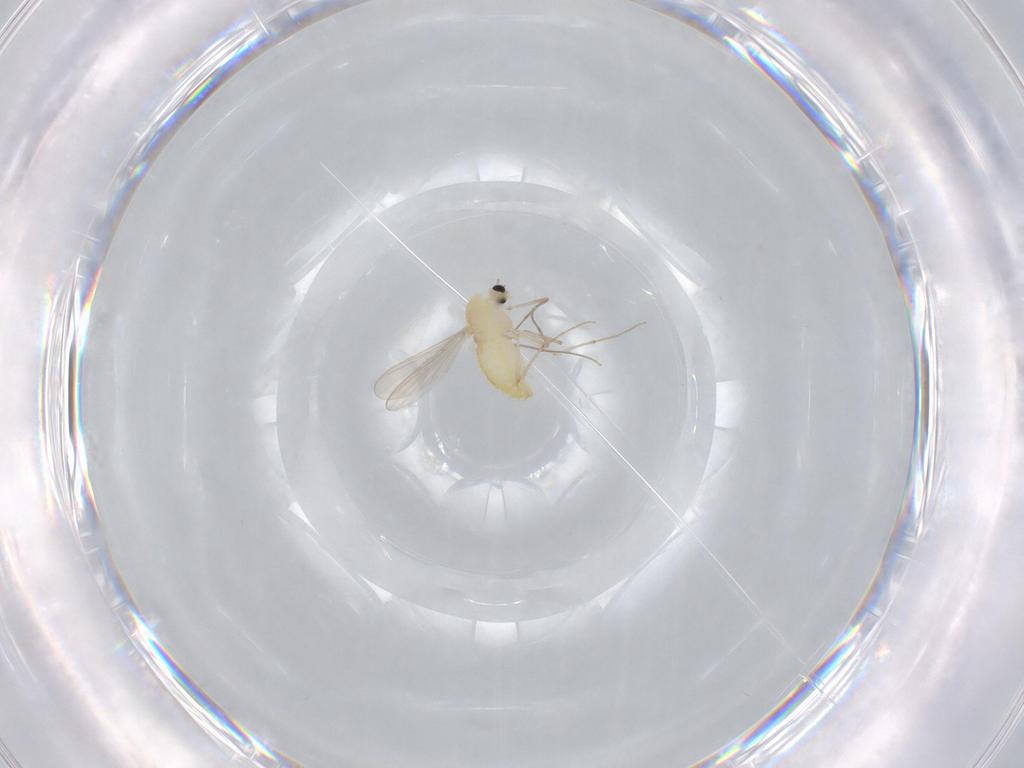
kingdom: Animalia
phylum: Arthropoda
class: Insecta
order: Diptera
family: Chironomidae
